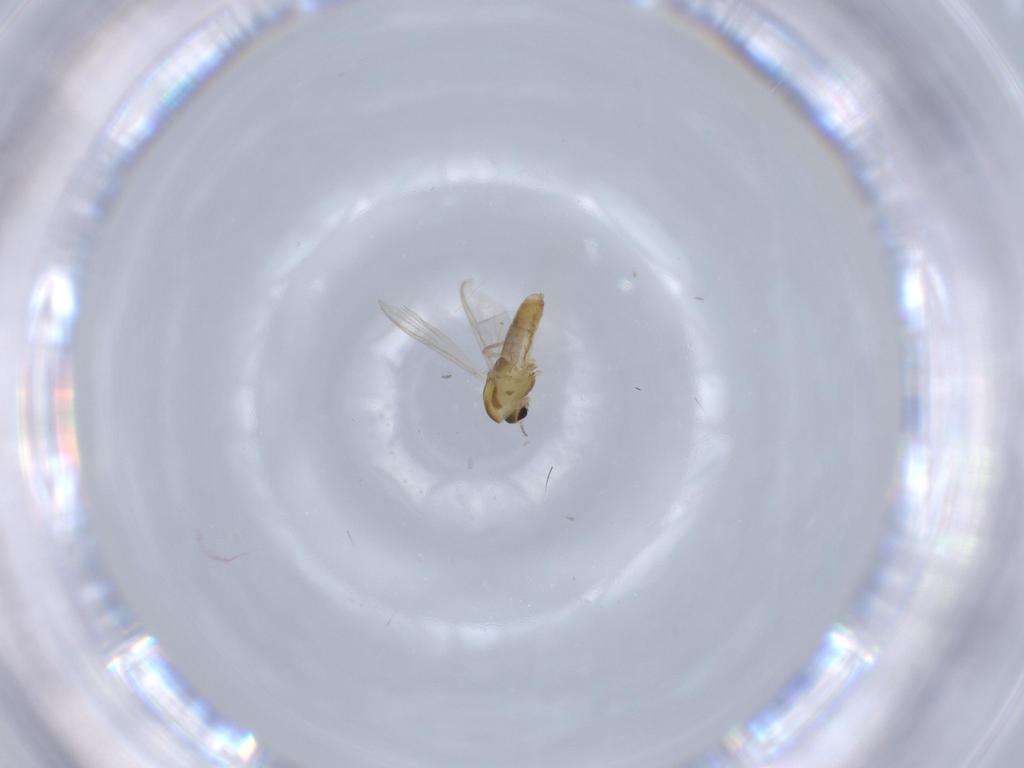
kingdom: Animalia
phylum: Arthropoda
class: Insecta
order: Diptera
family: Chironomidae
